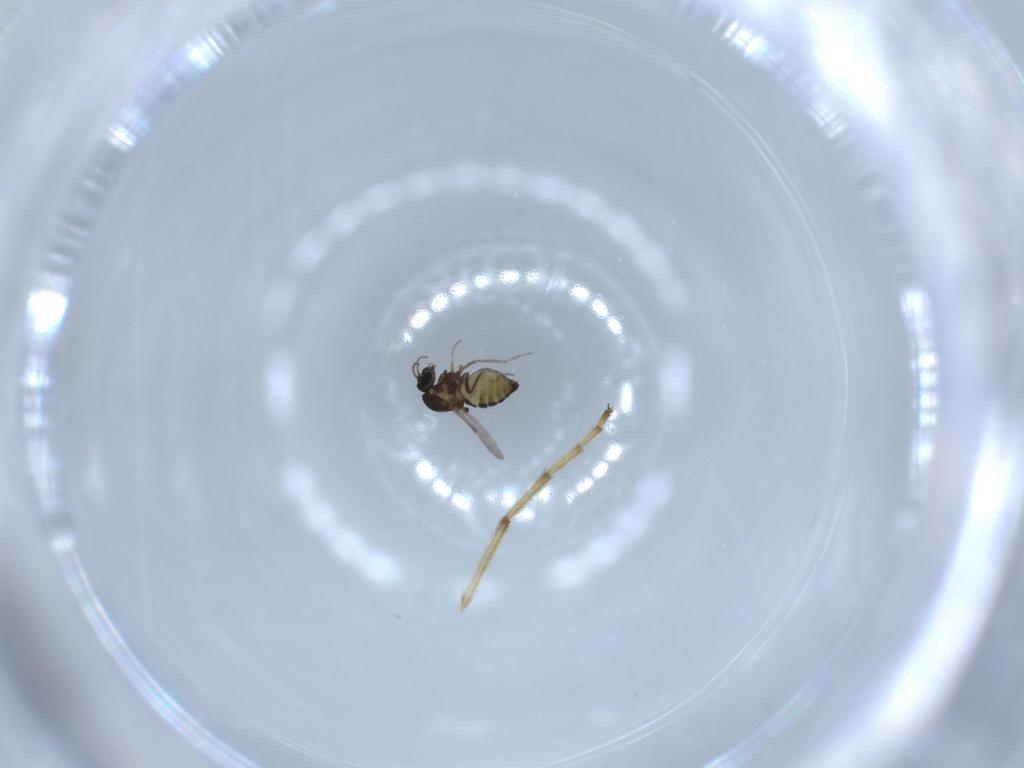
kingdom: Animalia
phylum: Arthropoda
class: Insecta
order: Diptera
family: Chironomidae
